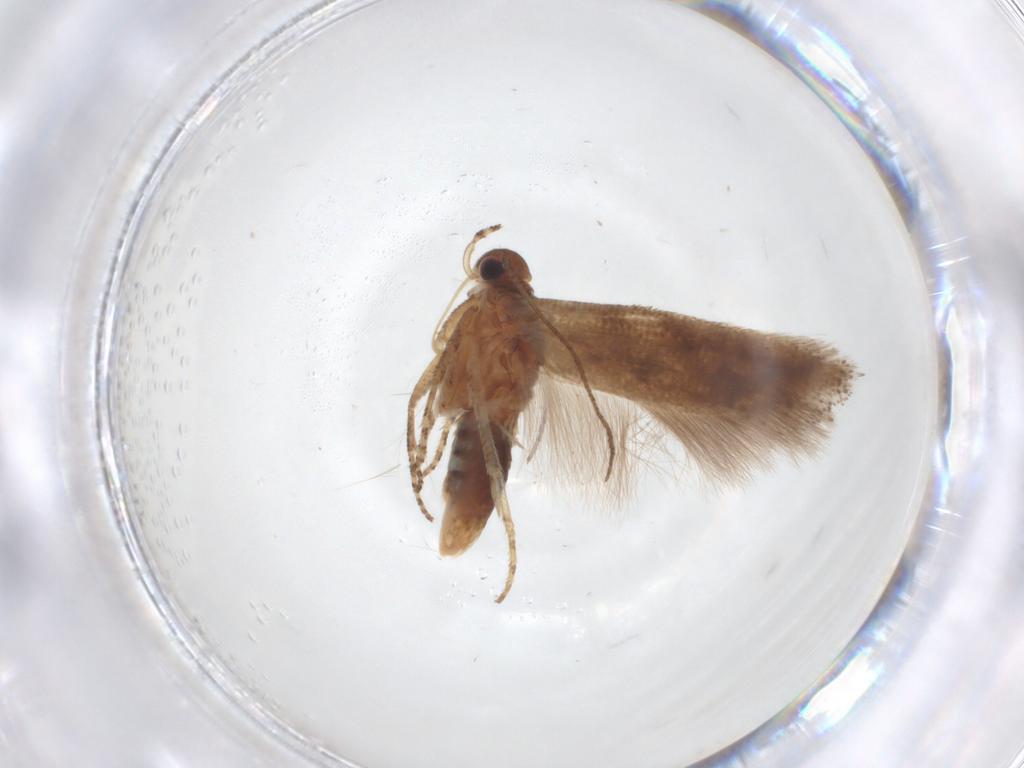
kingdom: Animalia
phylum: Arthropoda
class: Insecta
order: Lepidoptera
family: Gelechiidae
